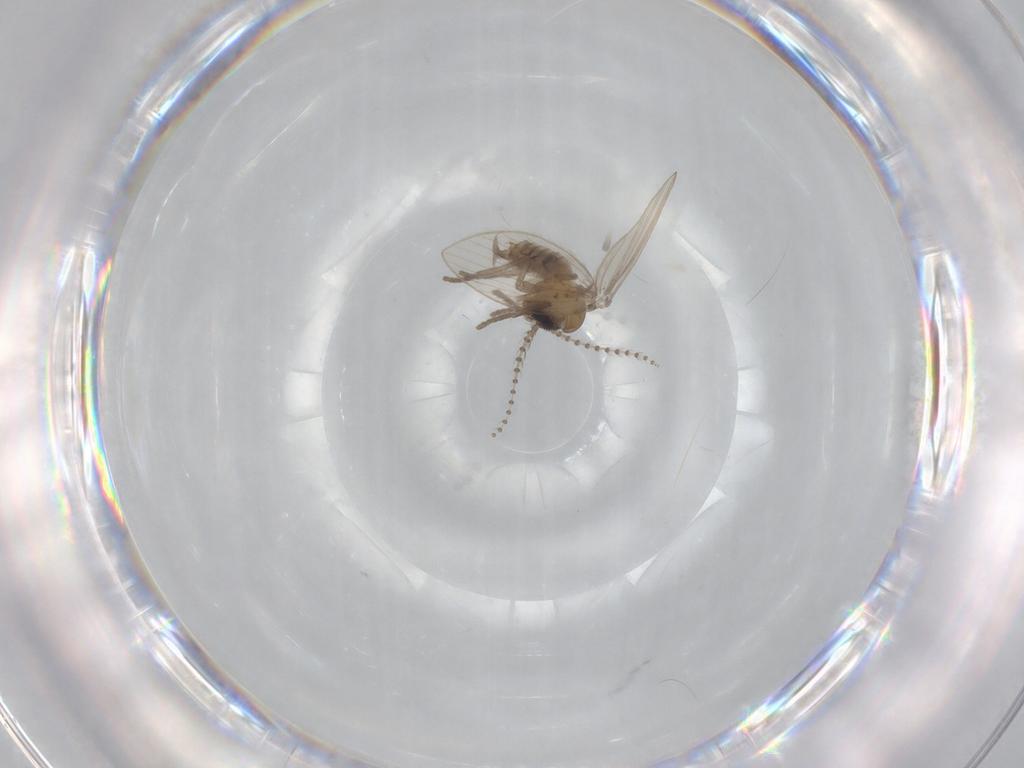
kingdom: Animalia
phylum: Arthropoda
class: Insecta
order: Diptera
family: Psychodidae
